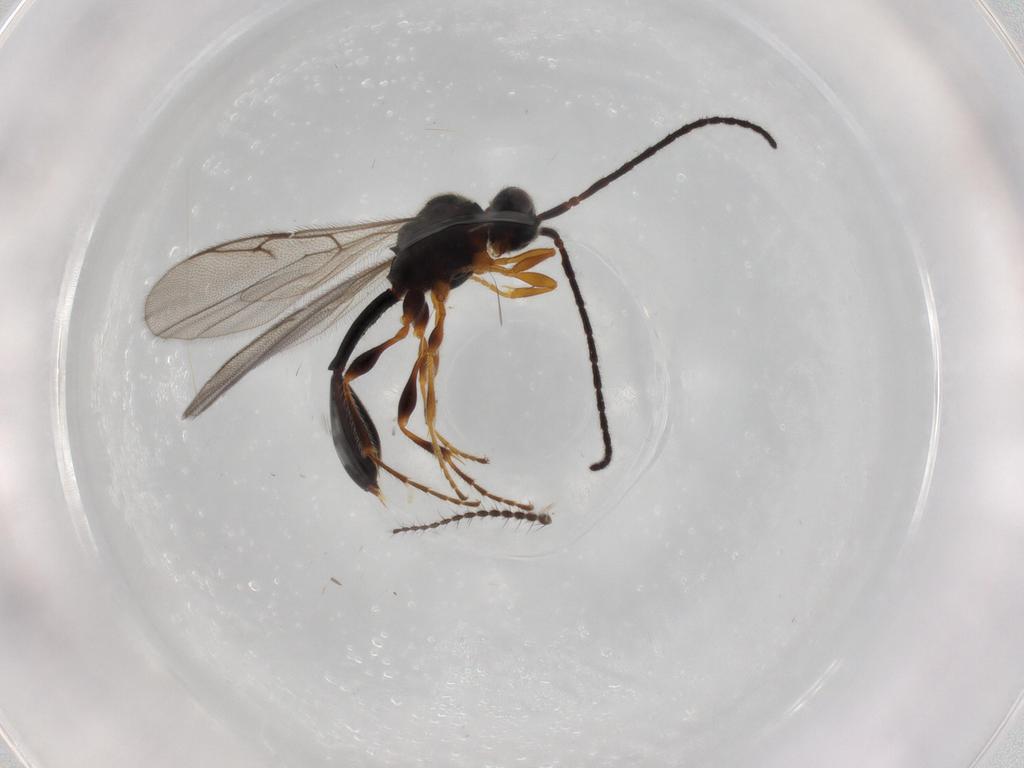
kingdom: Animalia
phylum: Arthropoda
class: Insecta
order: Hymenoptera
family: Diapriidae
